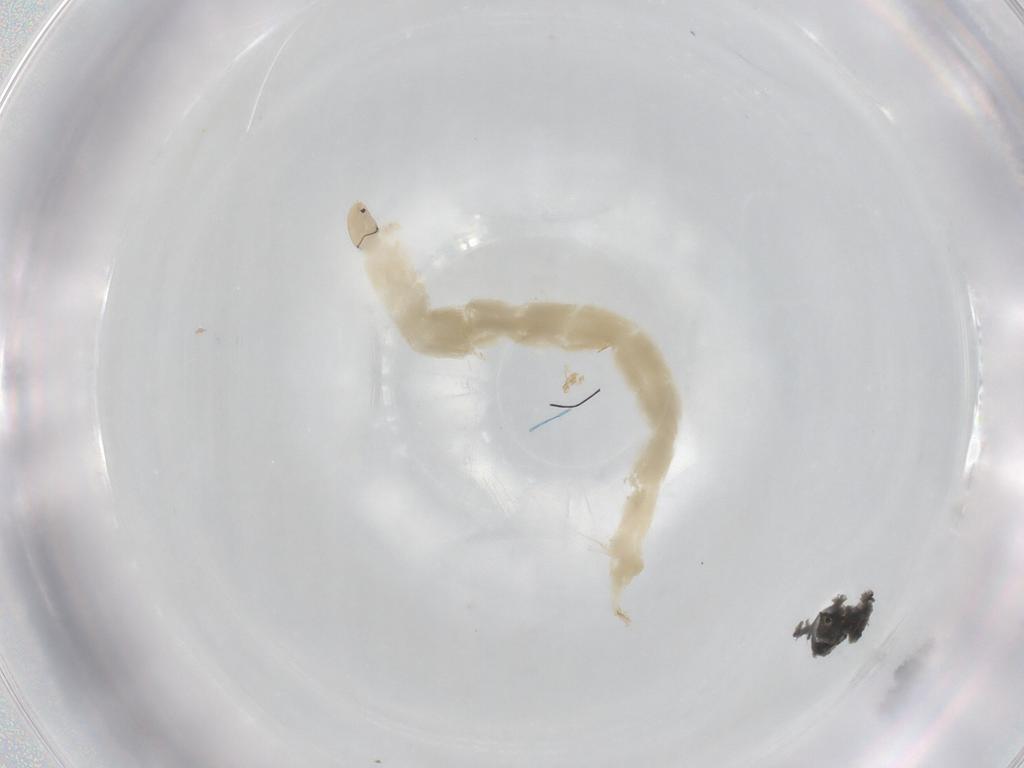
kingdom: Animalia
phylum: Arthropoda
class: Insecta
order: Diptera
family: Chironomidae
